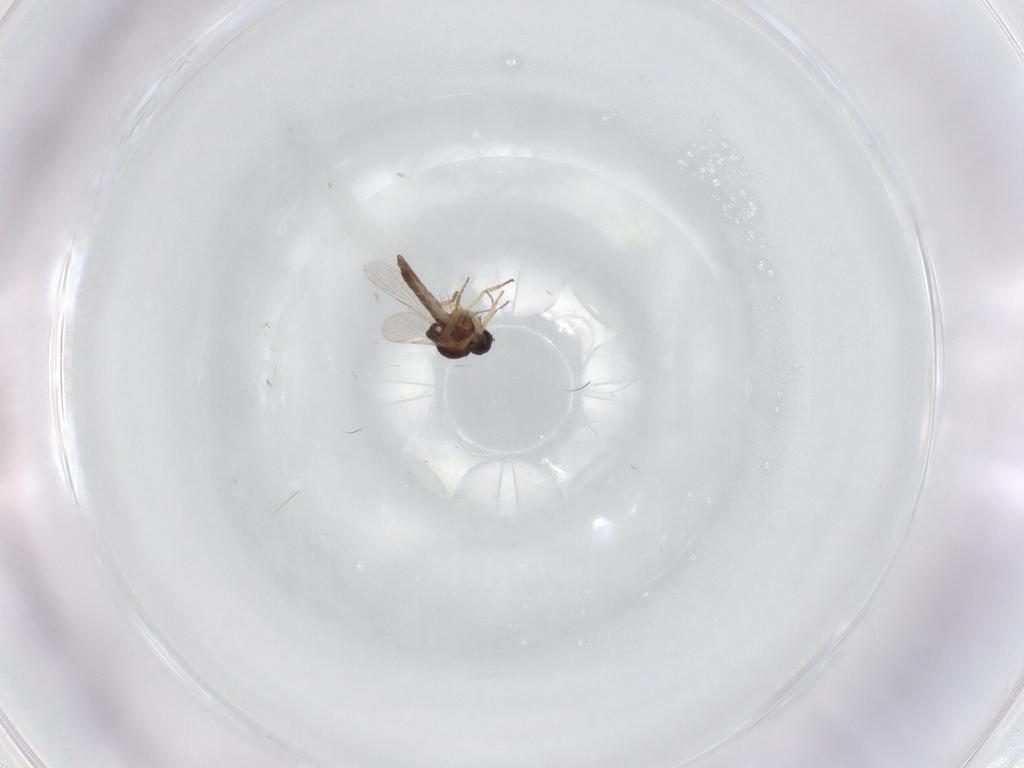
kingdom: Animalia
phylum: Arthropoda
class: Insecta
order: Diptera
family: Ceratopogonidae
